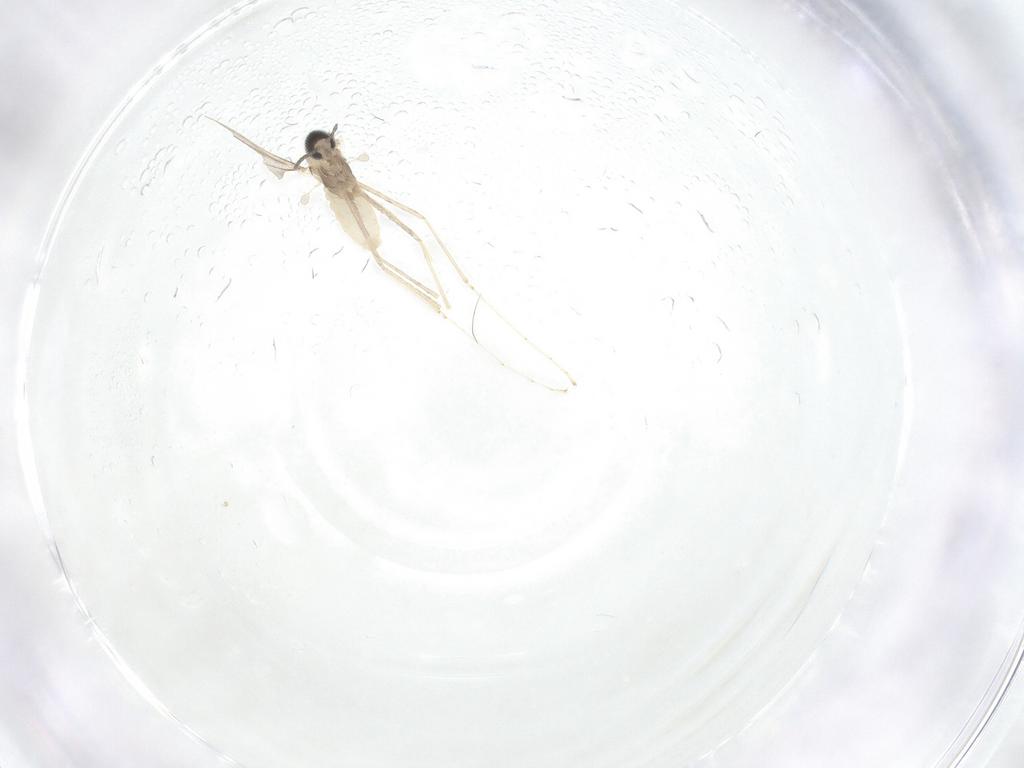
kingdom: Animalia
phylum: Arthropoda
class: Insecta
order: Diptera
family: Cecidomyiidae
